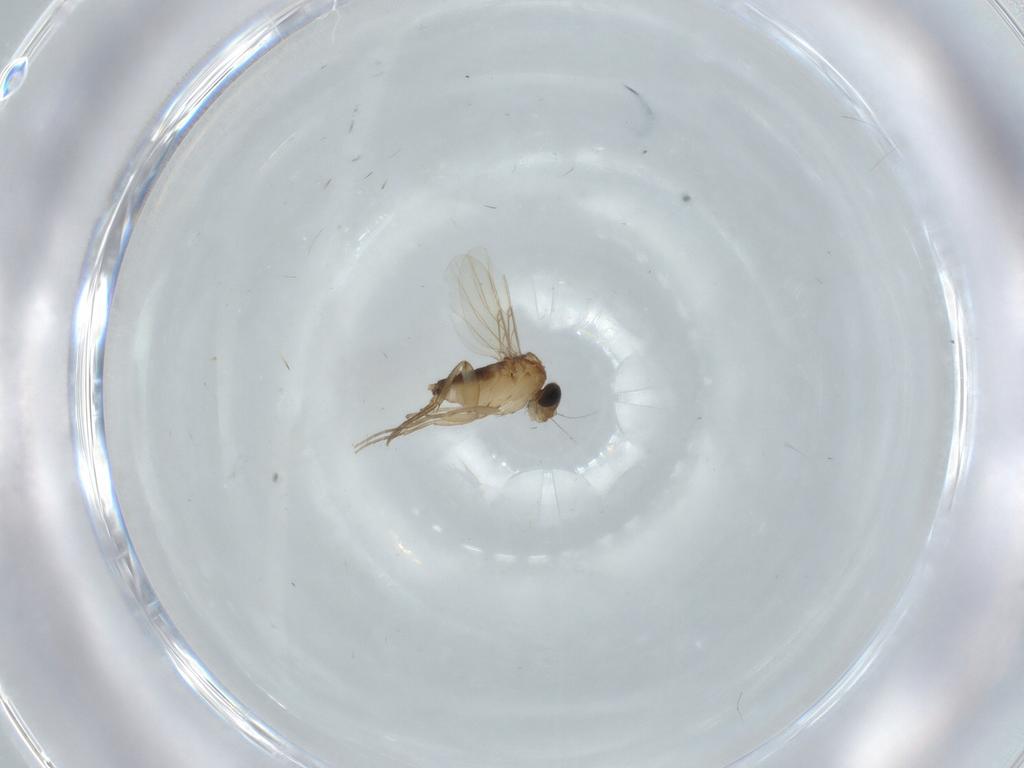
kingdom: Animalia
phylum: Arthropoda
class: Insecta
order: Diptera
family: Phoridae
